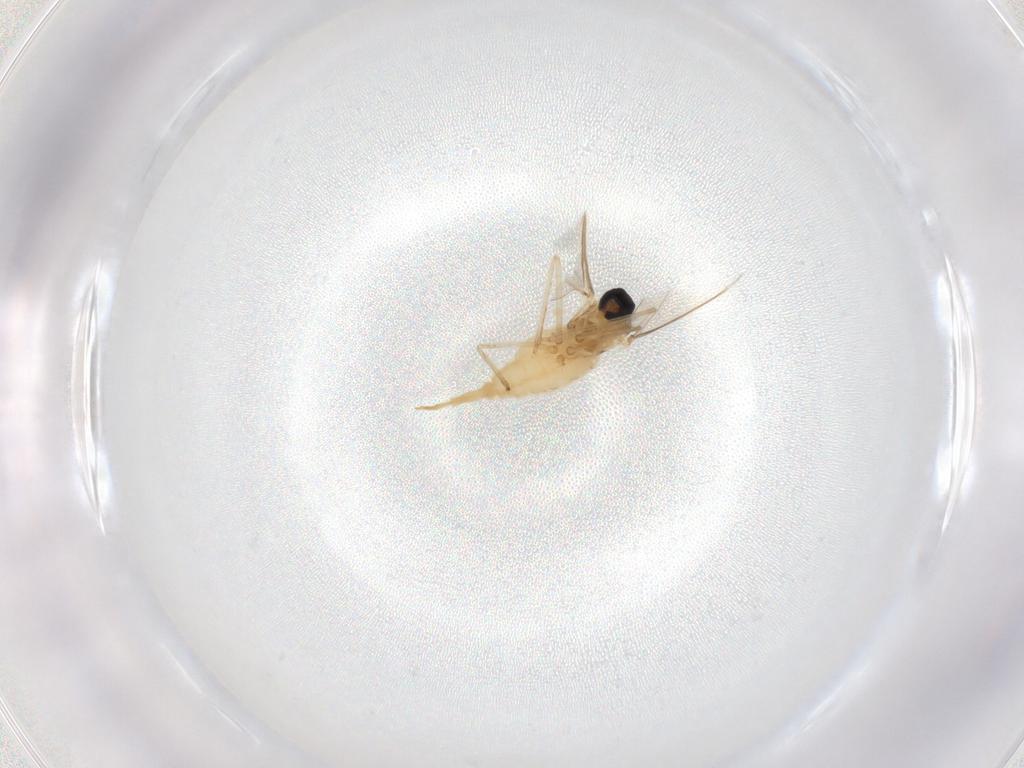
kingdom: Animalia
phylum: Arthropoda
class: Insecta
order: Diptera
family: Cecidomyiidae
